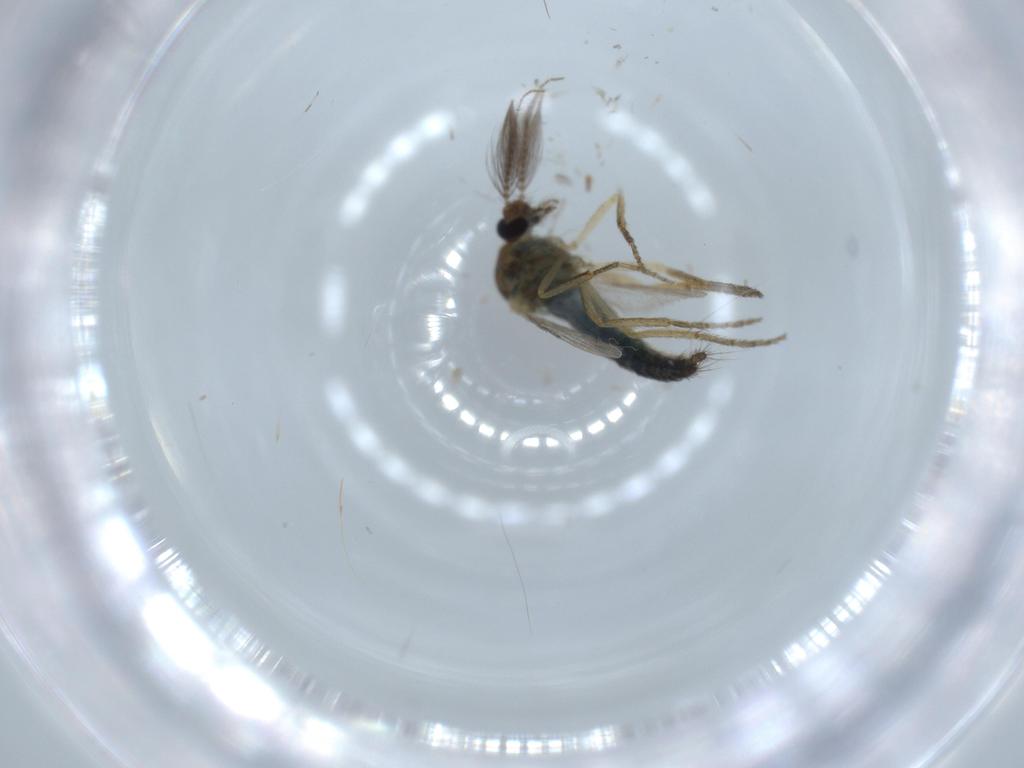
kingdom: Animalia
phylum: Arthropoda
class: Insecta
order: Diptera
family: Ceratopogonidae
